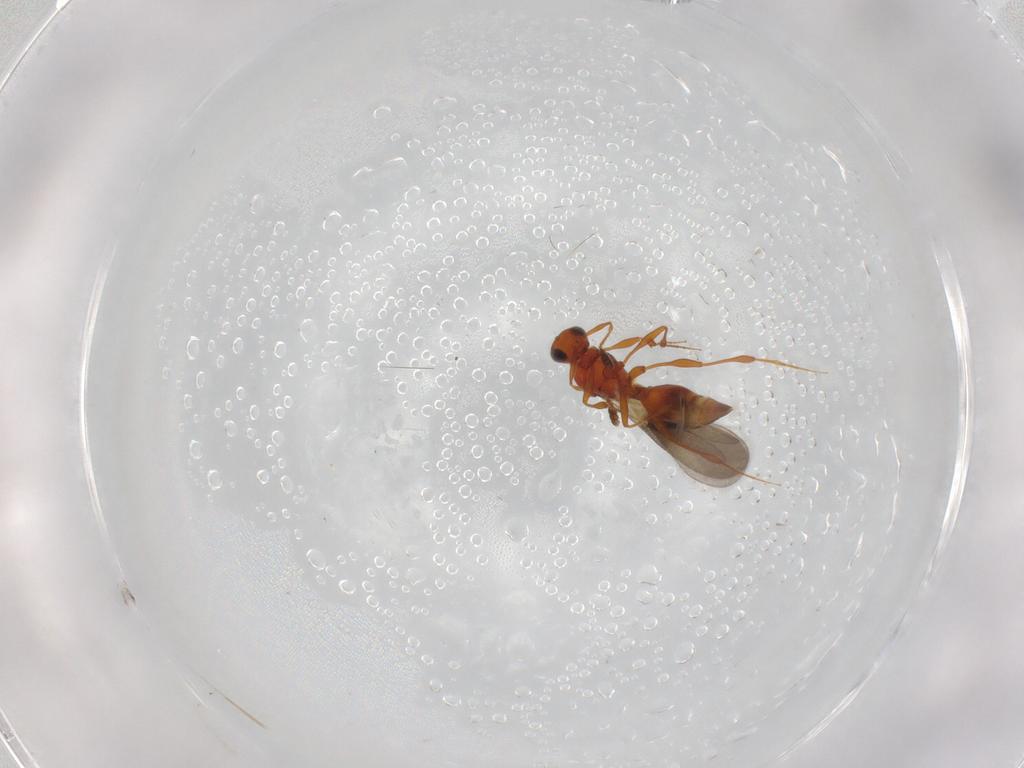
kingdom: Animalia
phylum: Arthropoda
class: Insecta
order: Hymenoptera
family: Platygastridae
